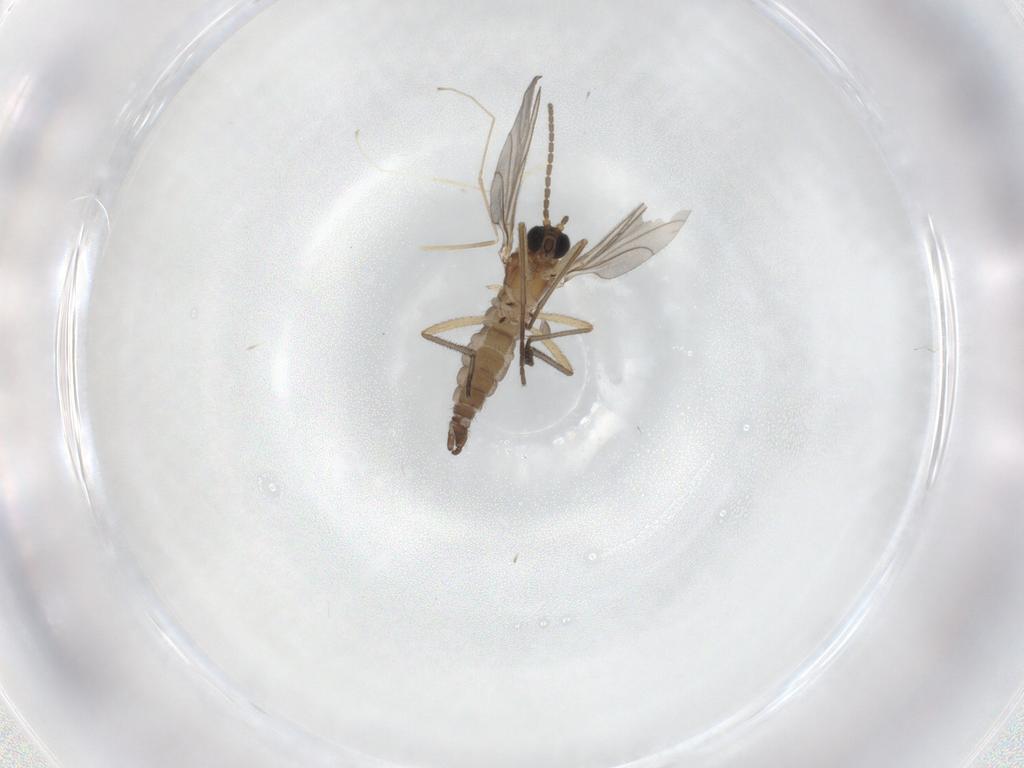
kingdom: Animalia
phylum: Arthropoda
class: Insecta
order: Diptera
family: Sciaridae
